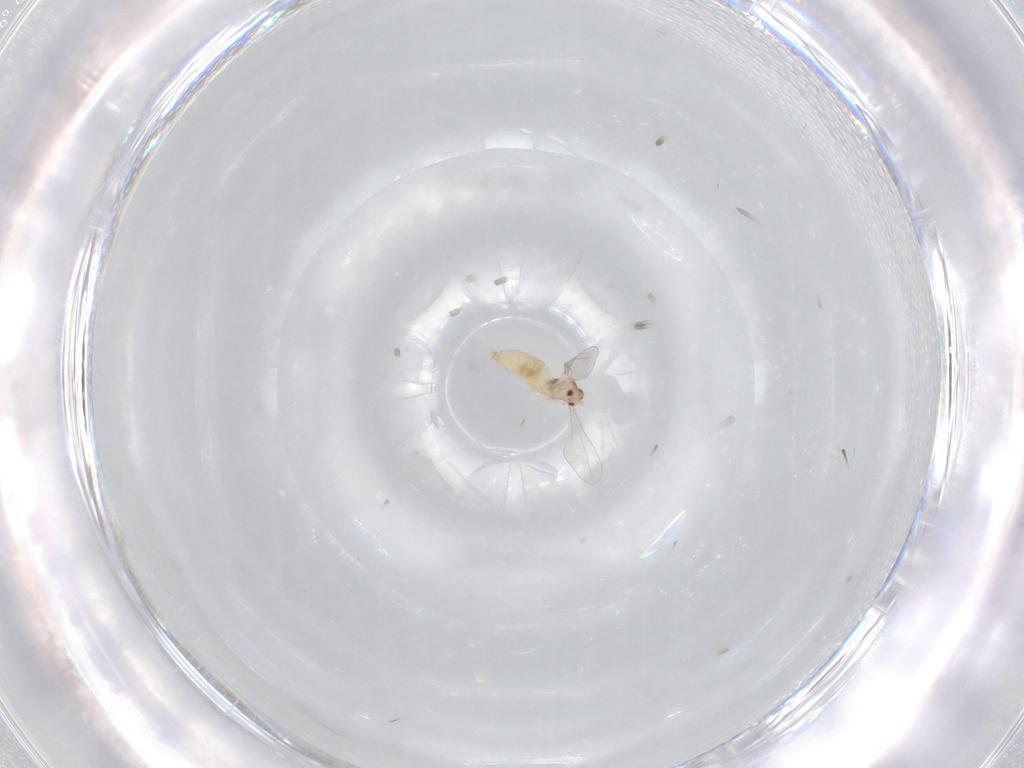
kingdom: Animalia
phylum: Arthropoda
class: Insecta
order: Diptera
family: Cecidomyiidae
